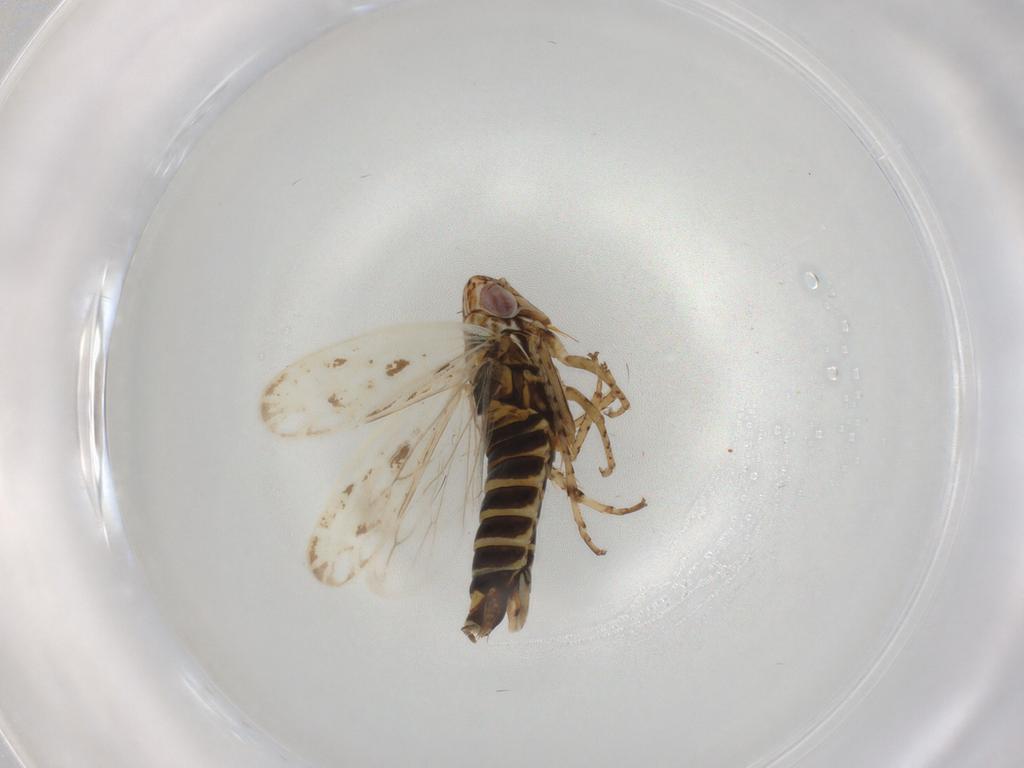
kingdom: Animalia
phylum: Arthropoda
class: Insecta
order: Hemiptera
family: Cicadellidae
